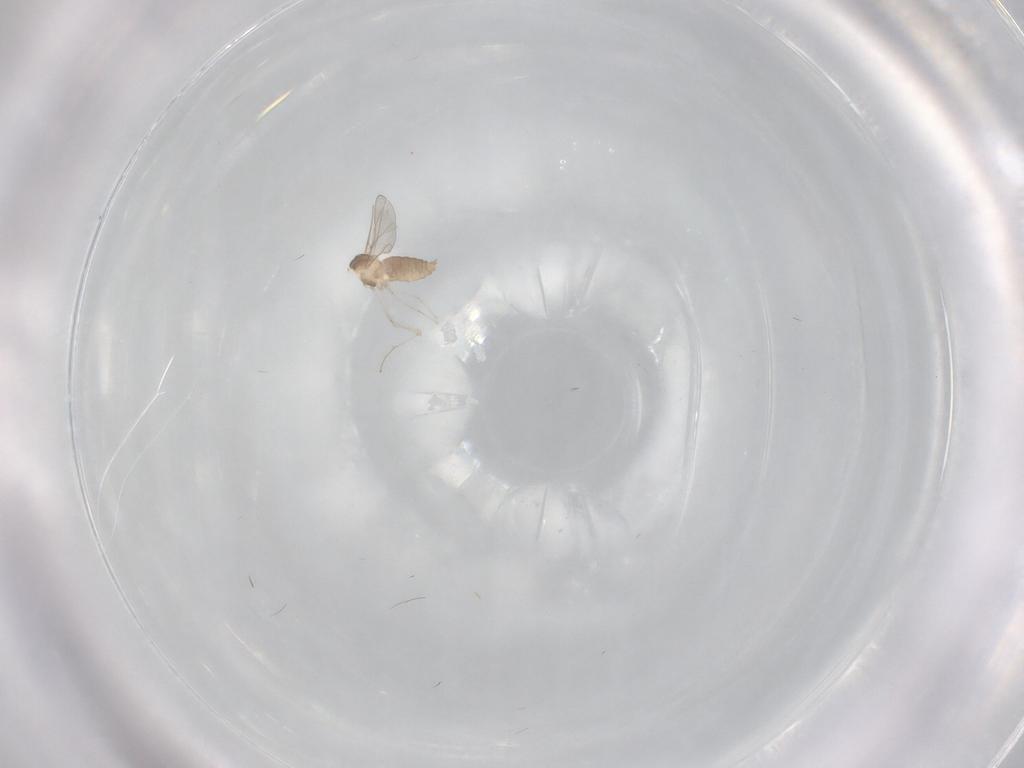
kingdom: Animalia
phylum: Arthropoda
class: Insecta
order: Diptera
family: Cecidomyiidae
